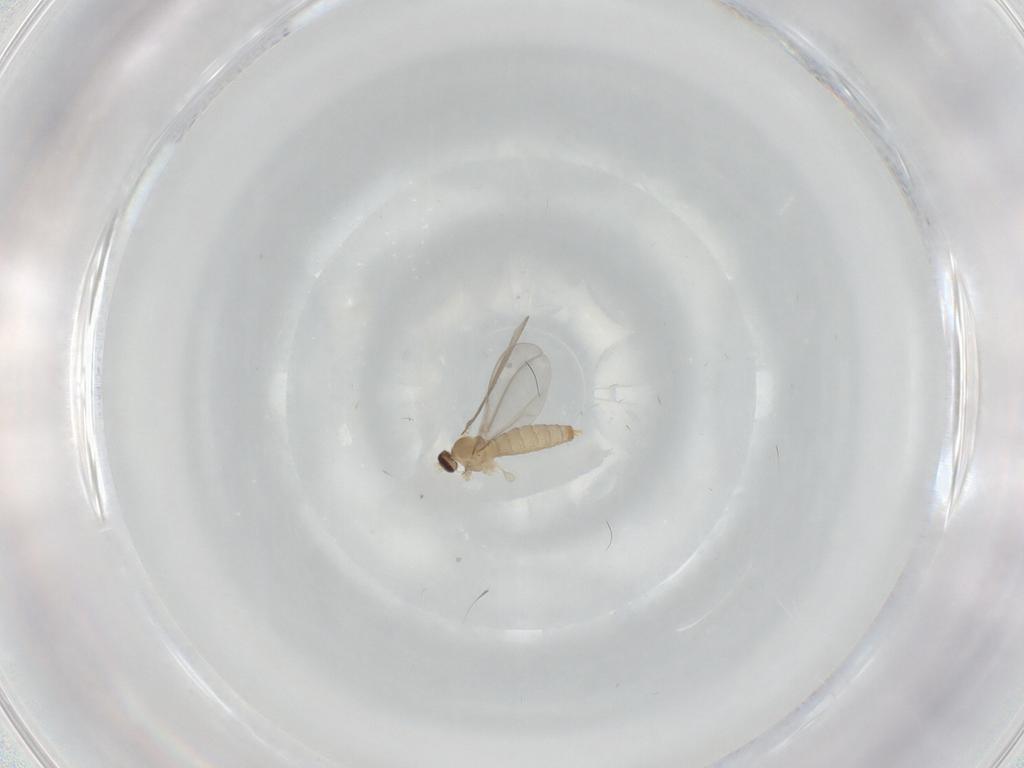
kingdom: Animalia
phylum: Arthropoda
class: Insecta
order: Diptera
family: Cecidomyiidae
